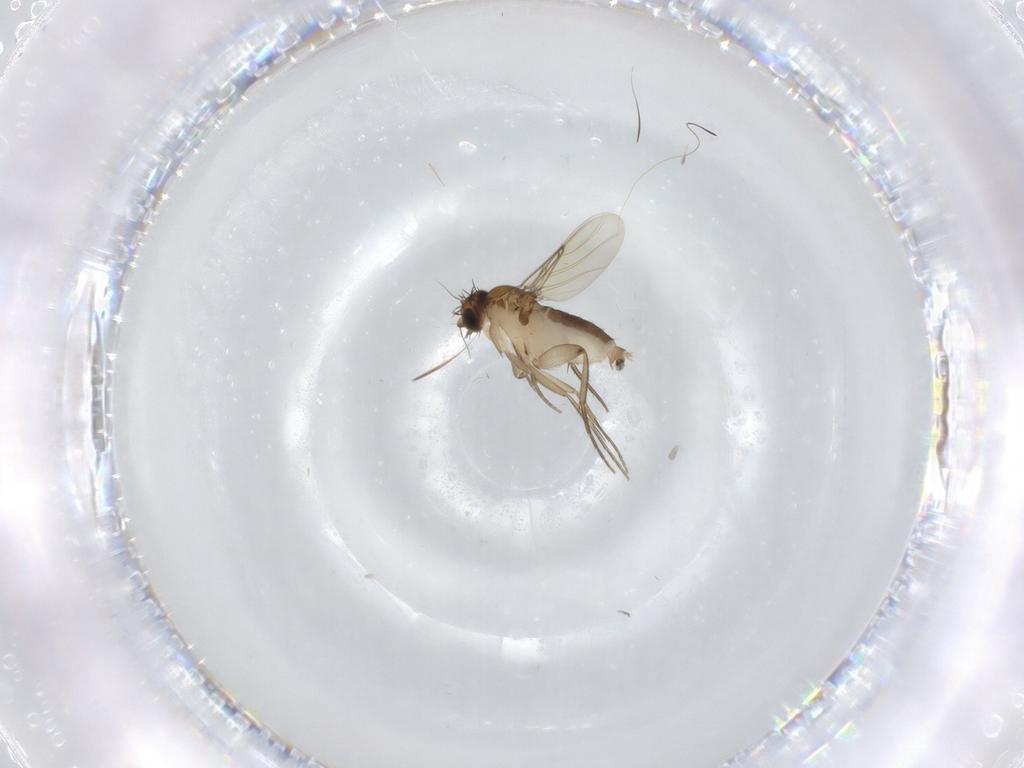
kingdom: Animalia
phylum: Arthropoda
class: Insecta
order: Diptera
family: Phoridae
